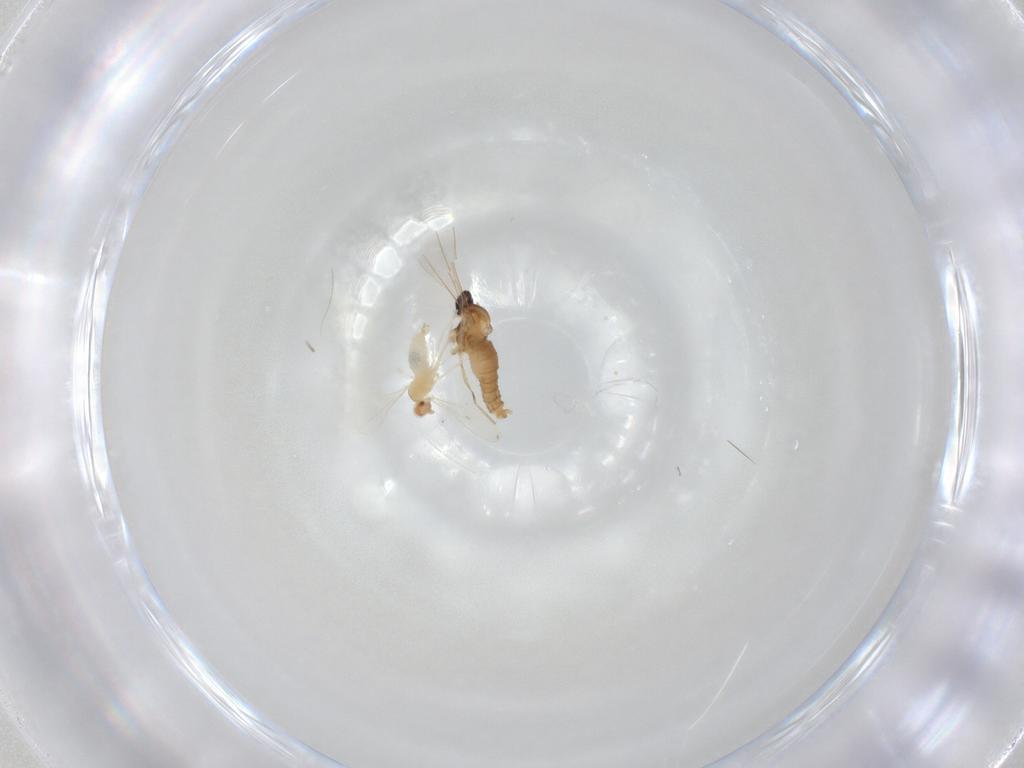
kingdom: Animalia
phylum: Arthropoda
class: Insecta
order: Diptera
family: Cecidomyiidae
